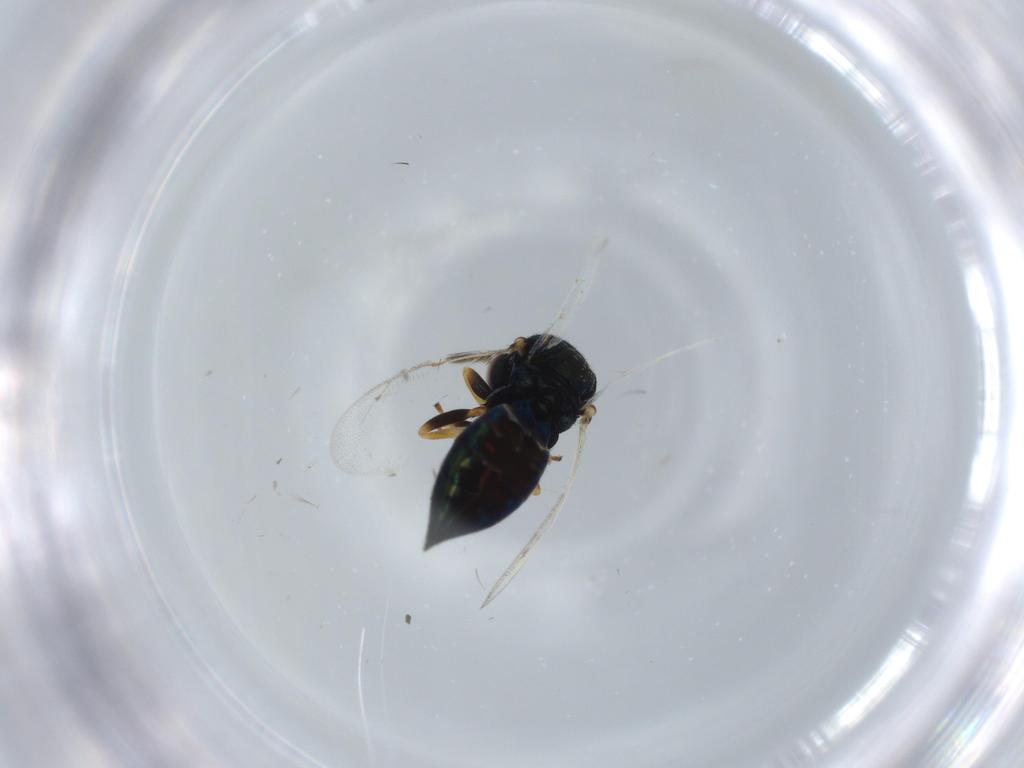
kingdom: Animalia
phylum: Arthropoda
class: Insecta
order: Hymenoptera
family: Pteromalidae
